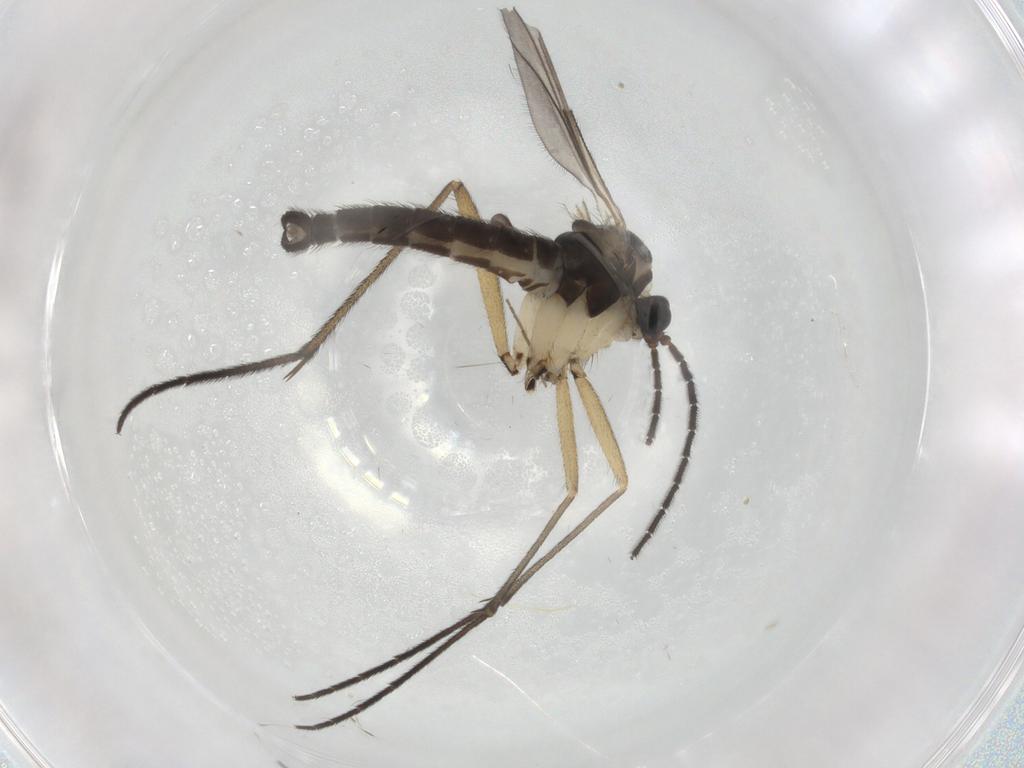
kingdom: Animalia
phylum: Arthropoda
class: Insecta
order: Diptera
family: Sciaridae
